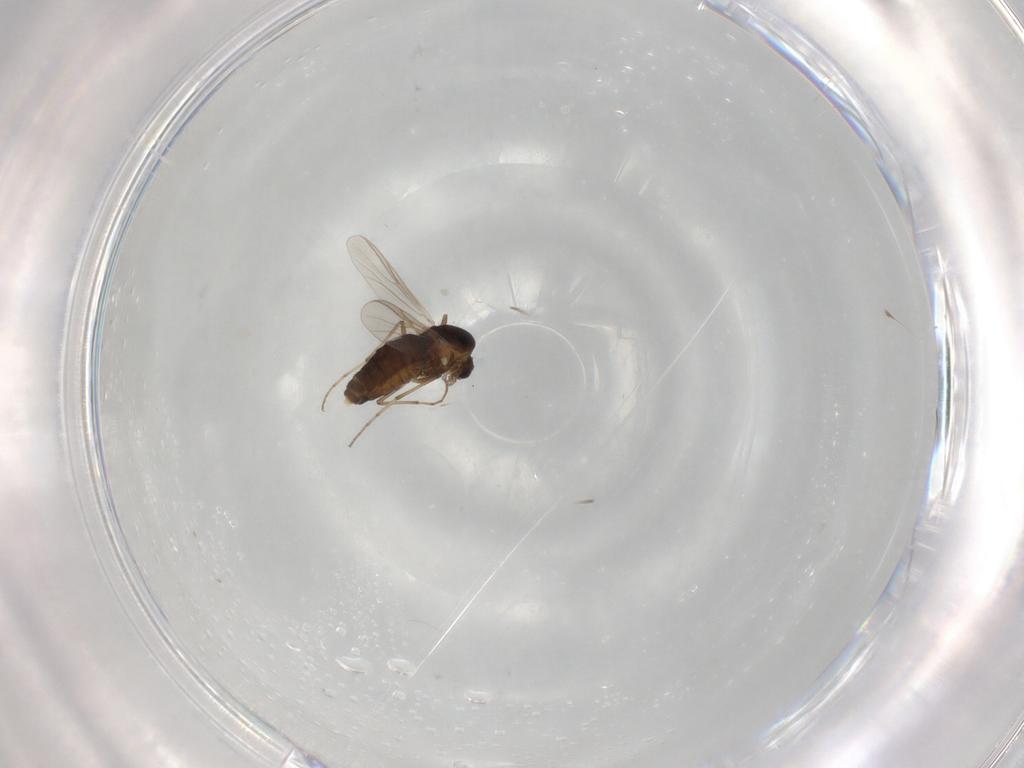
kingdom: Animalia
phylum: Arthropoda
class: Insecta
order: Diptera
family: Chironomidae
